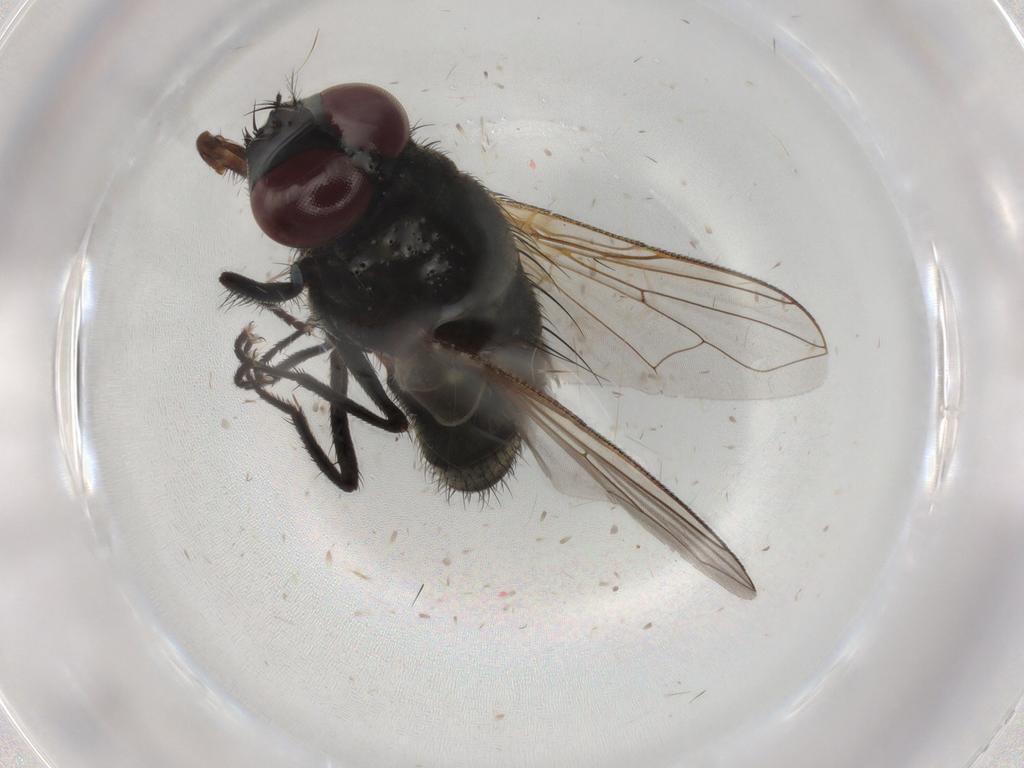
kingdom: Animalia
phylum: Arthropoda
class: Insecta
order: Diptera
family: Muscidae
